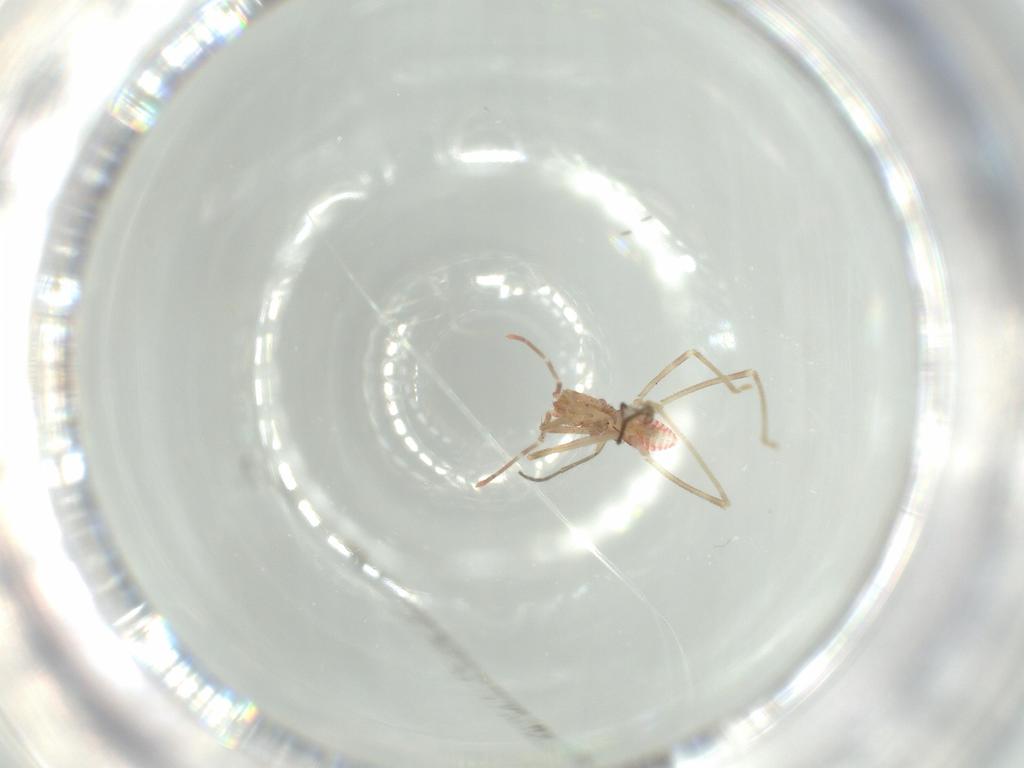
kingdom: Animalia
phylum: Arthropoda
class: Insecta
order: Hemiptera
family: Reduviidae
